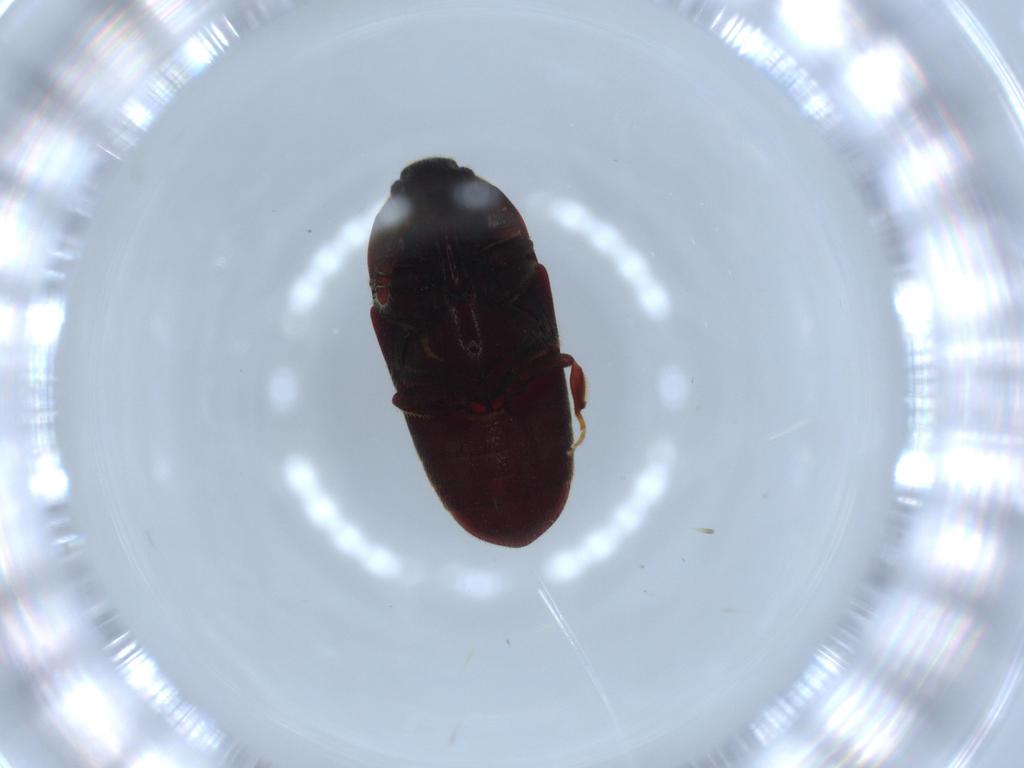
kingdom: Animalia
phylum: Arthropoda
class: Insecta
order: Coleoptera
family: Throscidae
